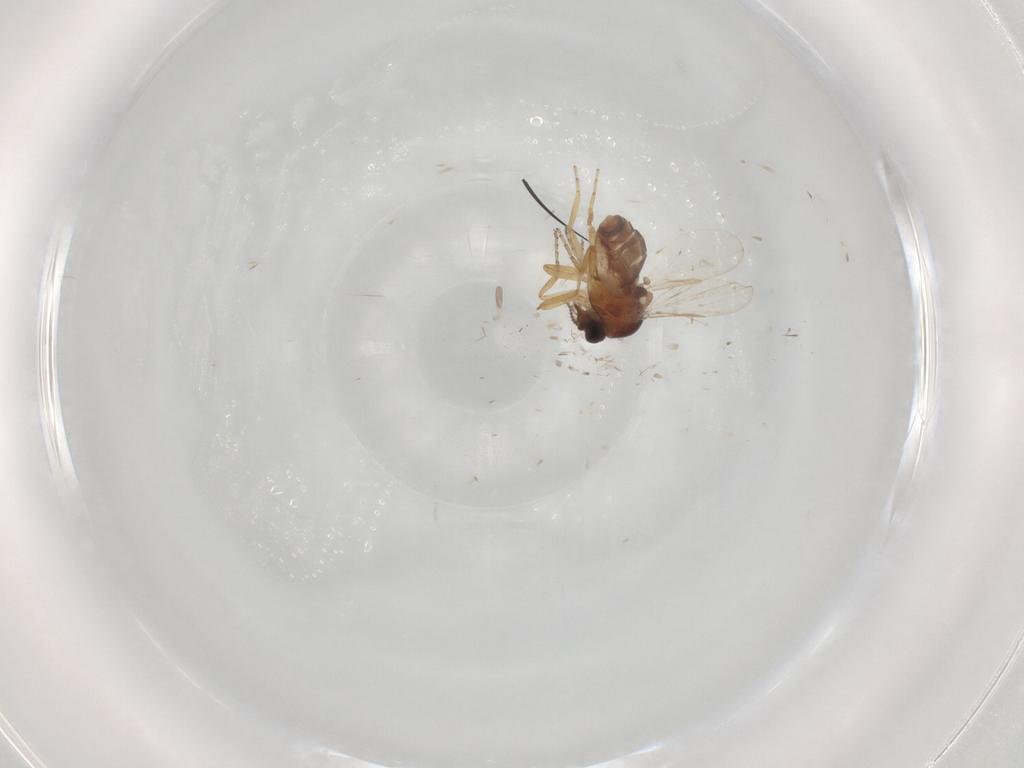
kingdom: Animalia
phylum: Arthropoda
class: Insecta
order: Diptera
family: Ceratopogonidae
